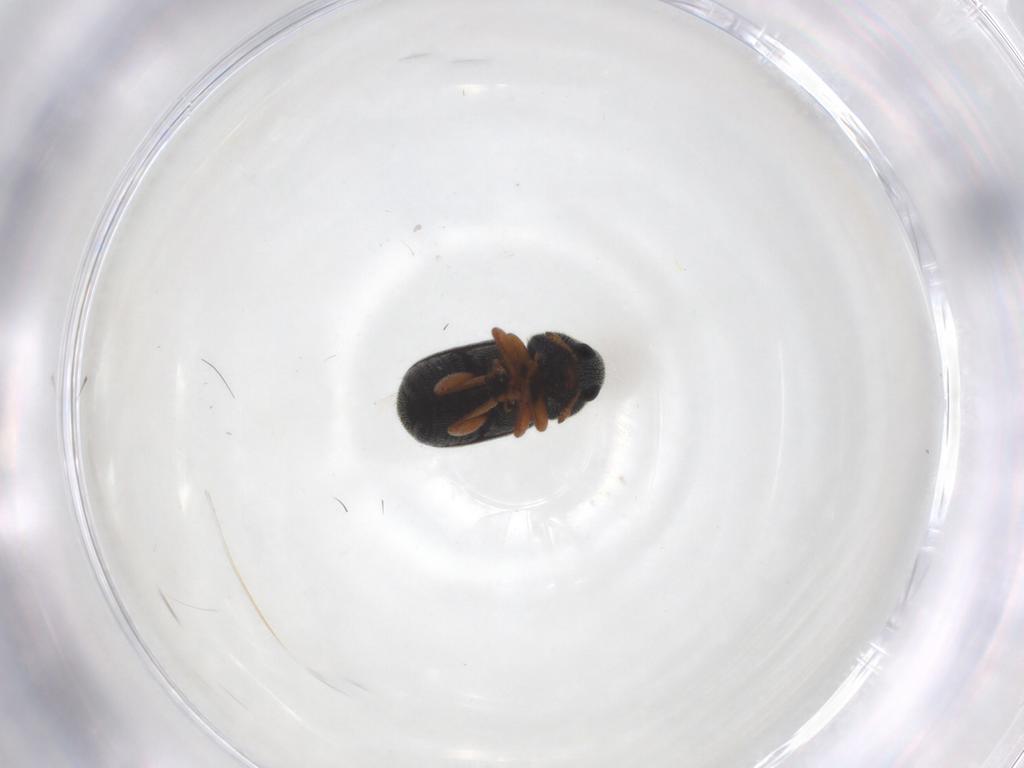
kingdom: Animalia
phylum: Arthropoda
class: Insecta
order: Coleoptera
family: Anthribidae
